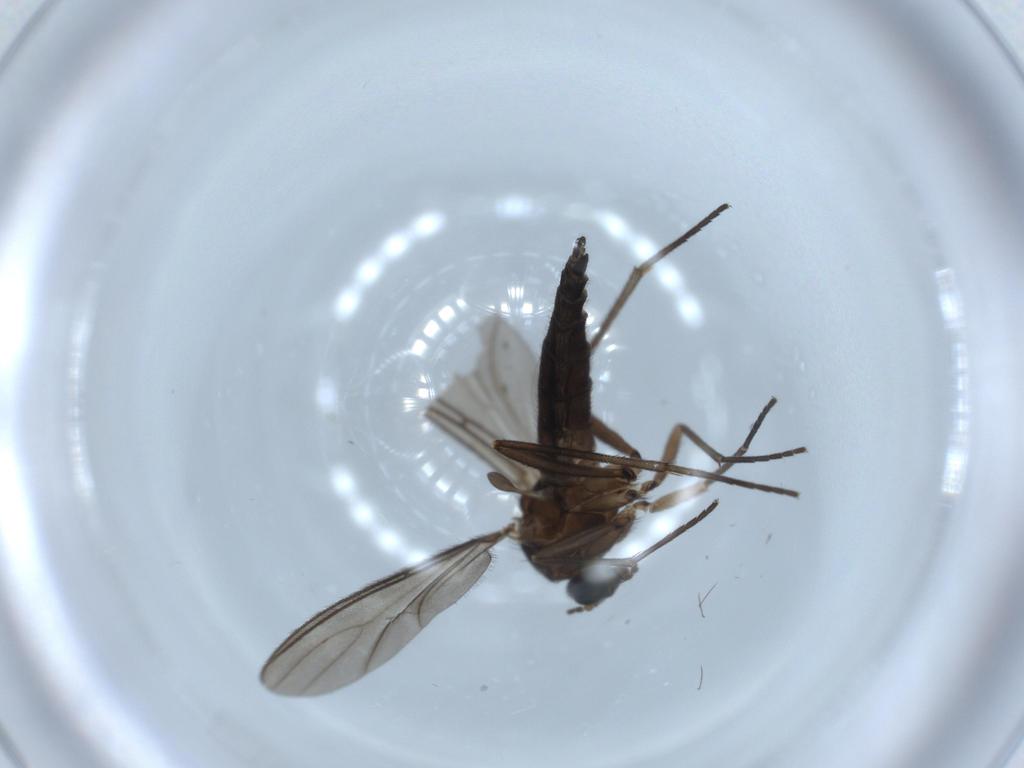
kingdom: Animalia
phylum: Arthropoda
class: Insecta
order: Diptera
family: Sciaridae
